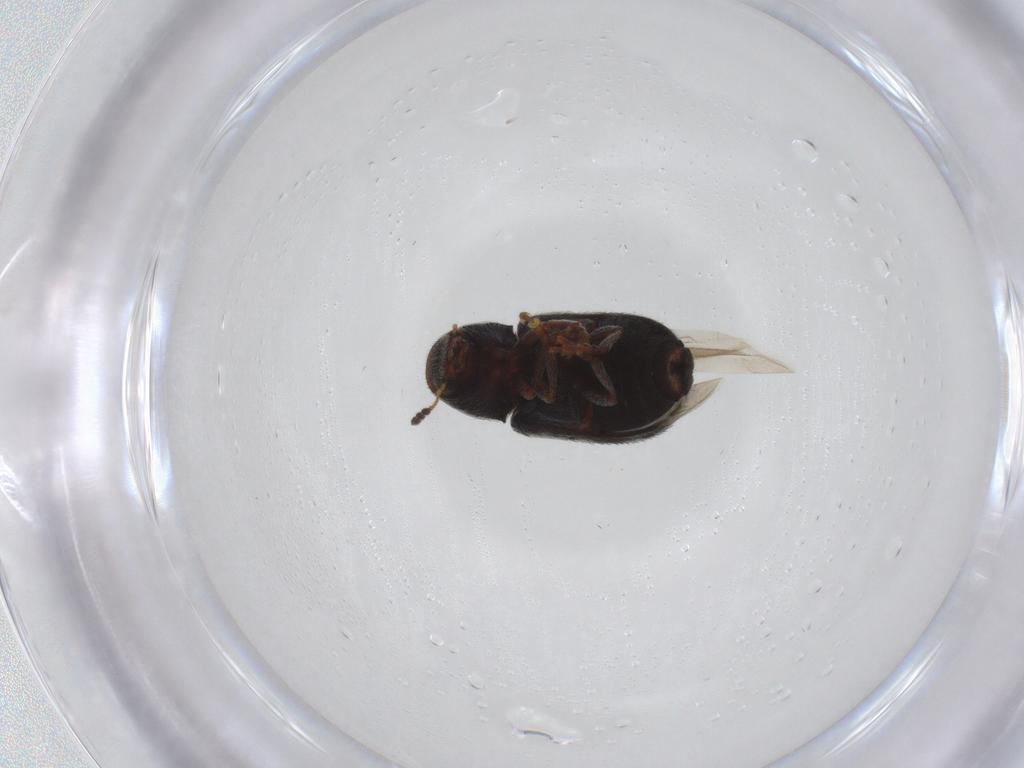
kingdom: Animalia
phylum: Arthropoda
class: Insecta
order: Coleoptera
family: Anthribidae
